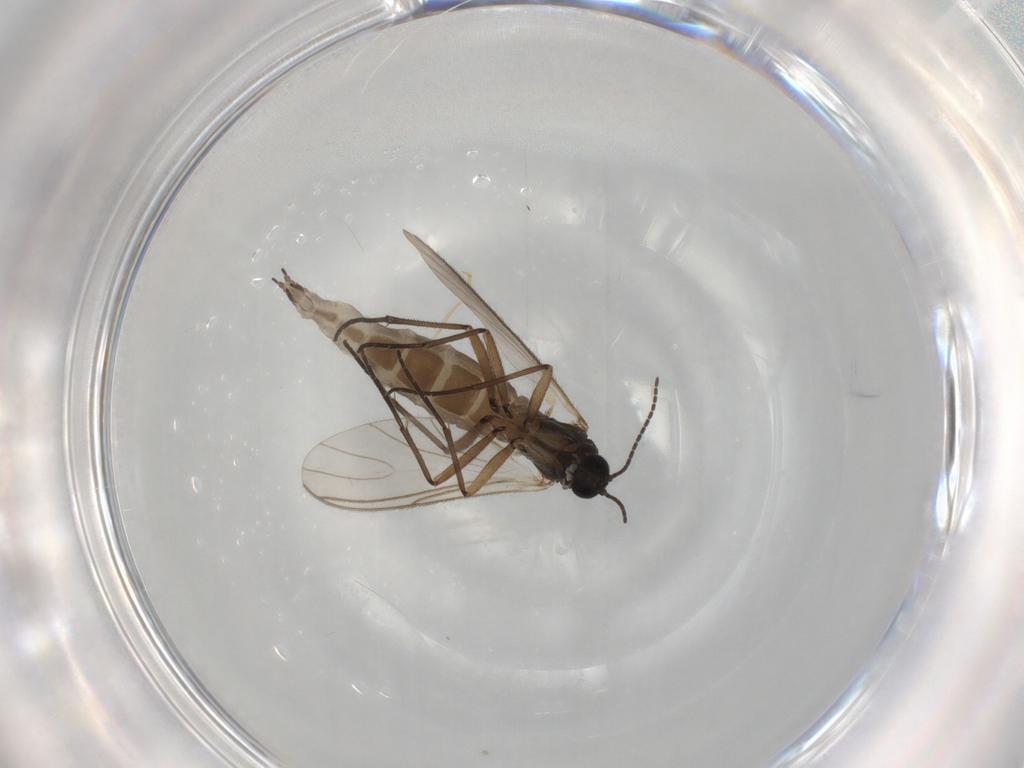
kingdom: Animalia
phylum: Arthropoda
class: Insecta
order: Diptera
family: Sciaridae
